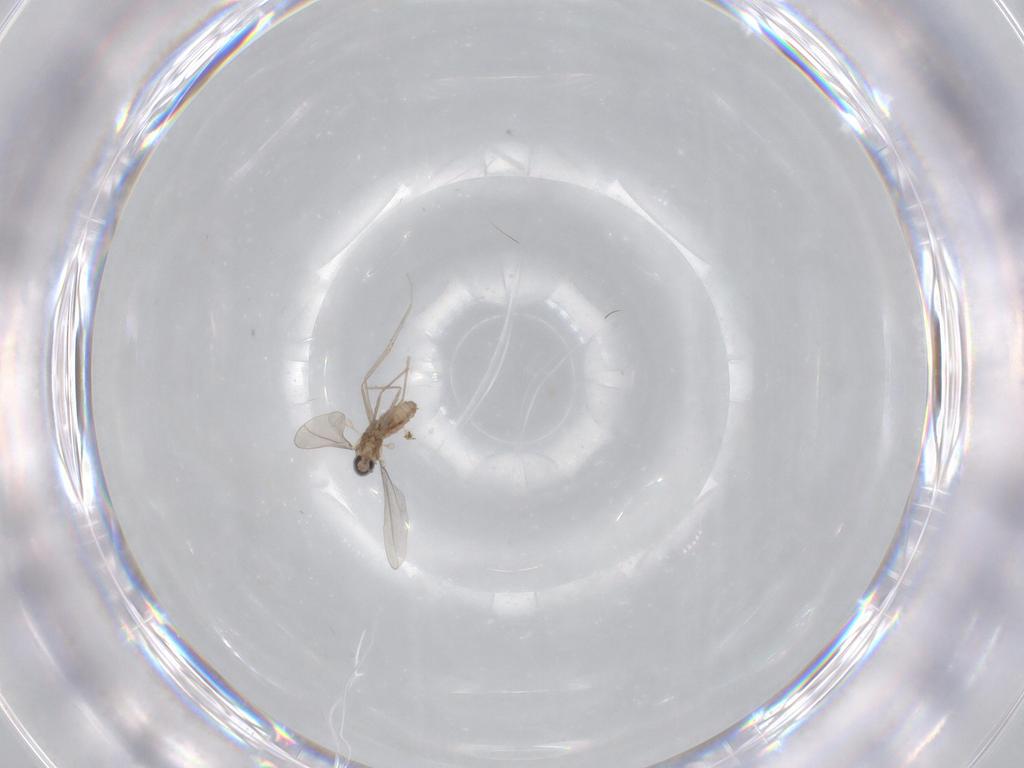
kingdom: Animalia
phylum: Arthropoda
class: Insecta
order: Diptera
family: Cecidomyiidae
